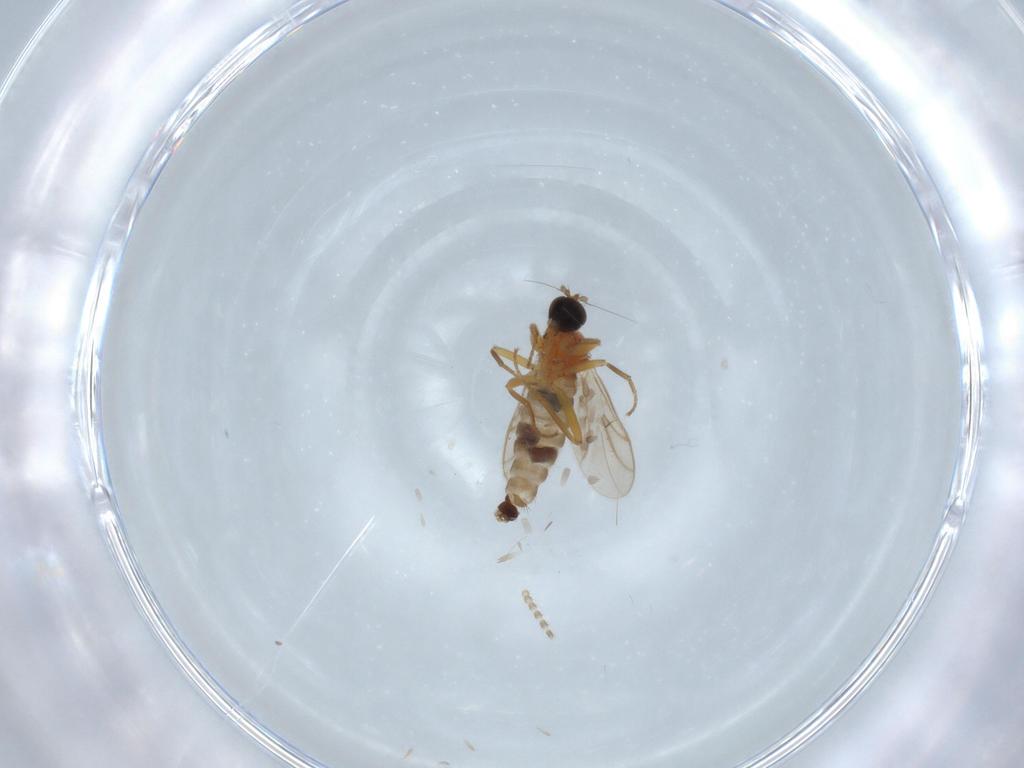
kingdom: Animalia
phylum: Arthropoda
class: Insecta
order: Diptera
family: Hybotidae
